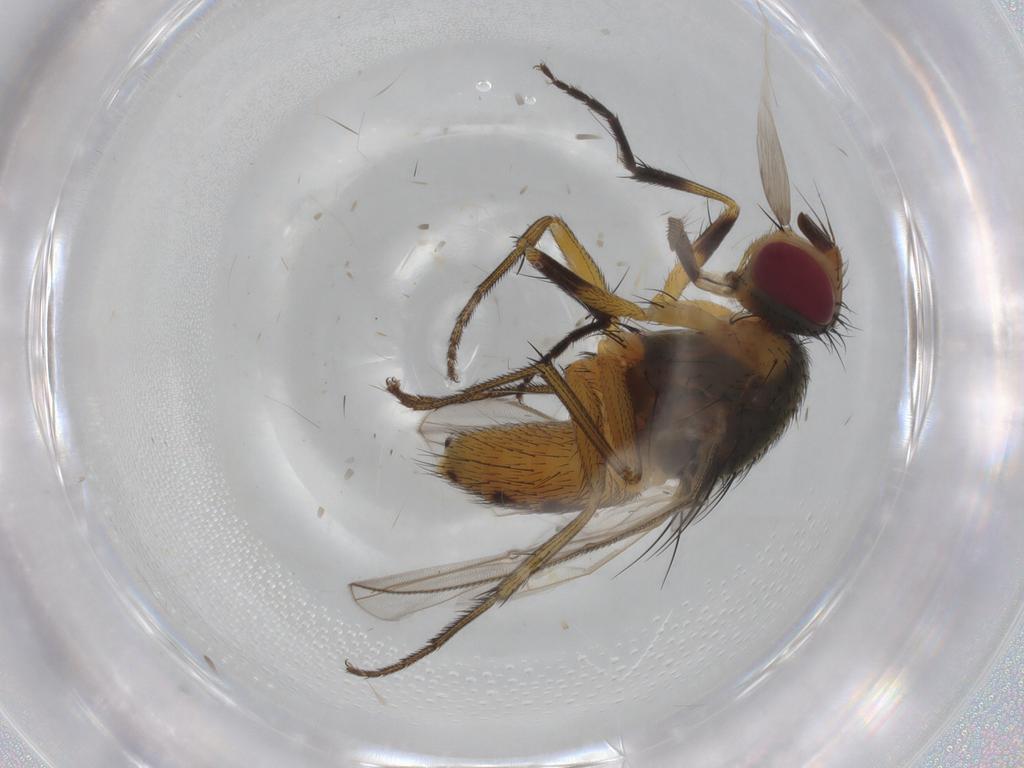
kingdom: Animalia
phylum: Arthropoda
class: Insecta
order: Diptera
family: Muscidae
